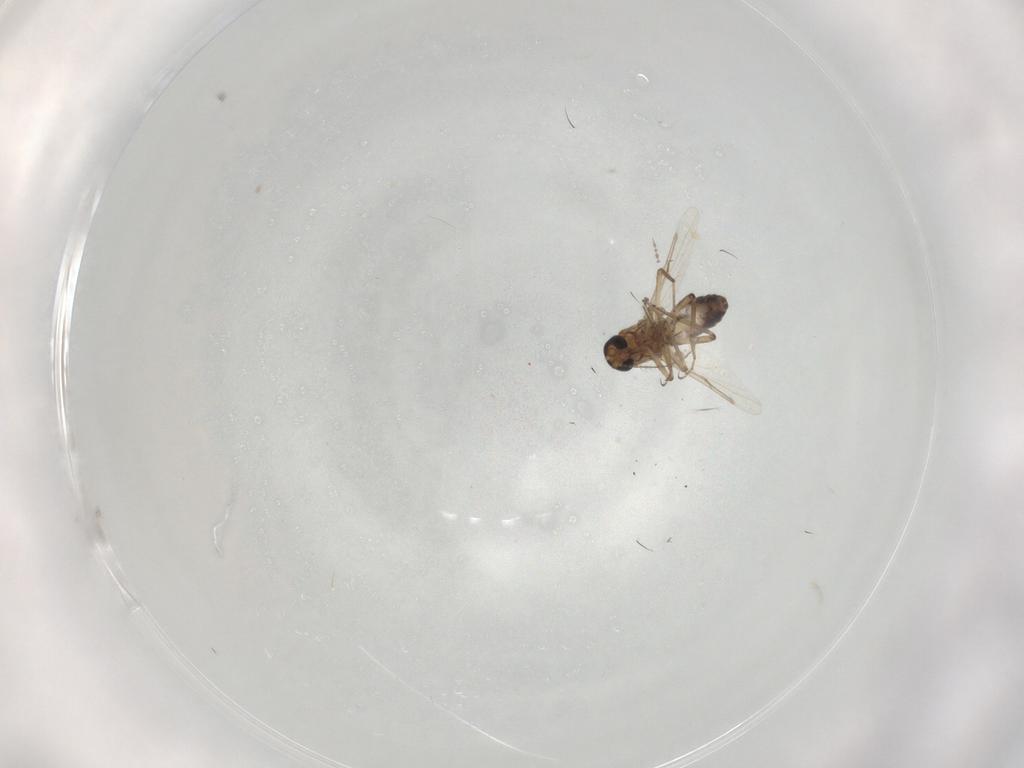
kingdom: Animalia
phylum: Arthropoda
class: Insecta
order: Diptera
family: Ceratopogonidae
